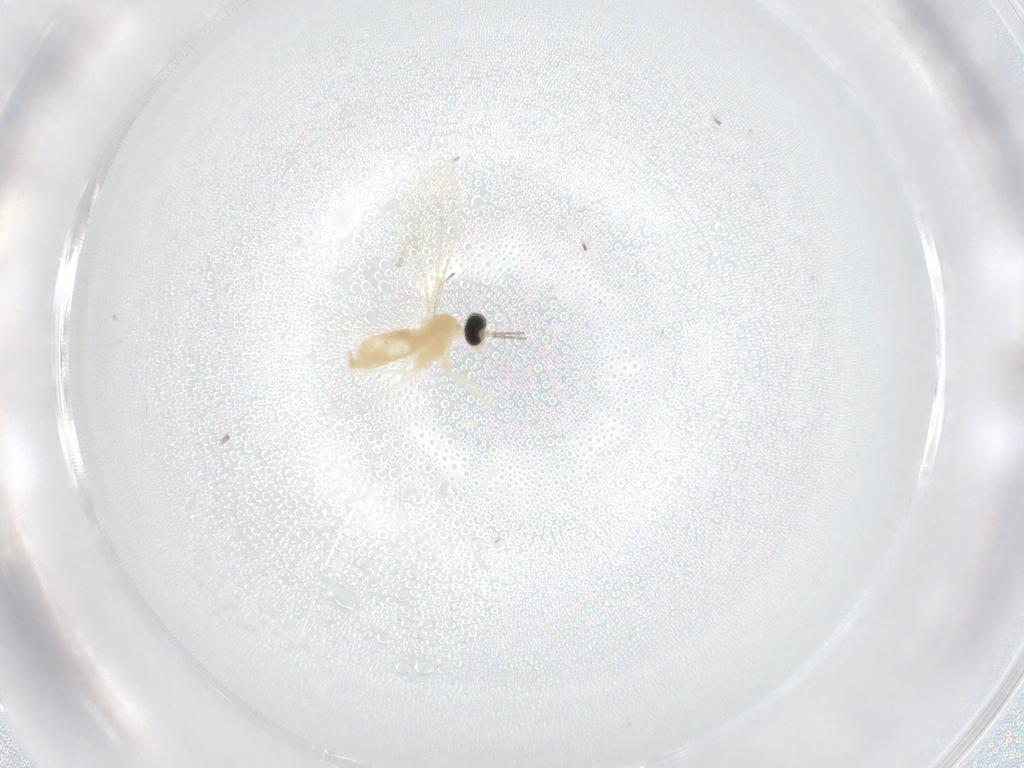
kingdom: Animalia
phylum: Arthropoda
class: Insecta
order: Diptera
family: Cecidomyiidae
